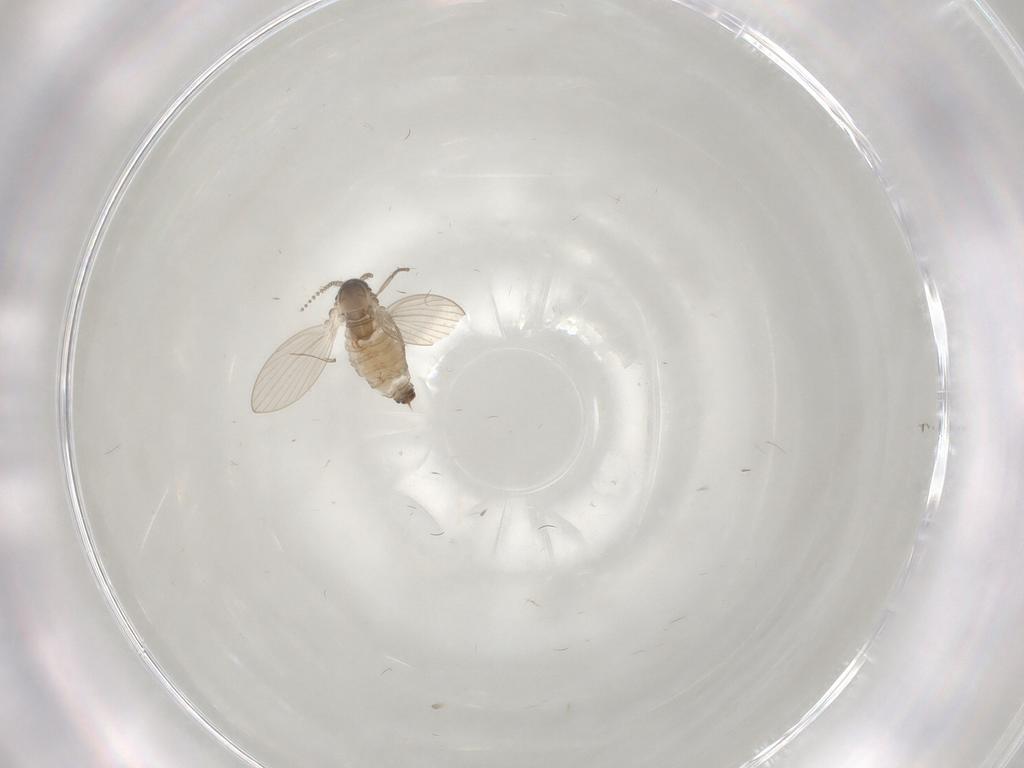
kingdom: Animalia
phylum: Arthropoda
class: Insecta
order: Diptera
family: Psychodidae
